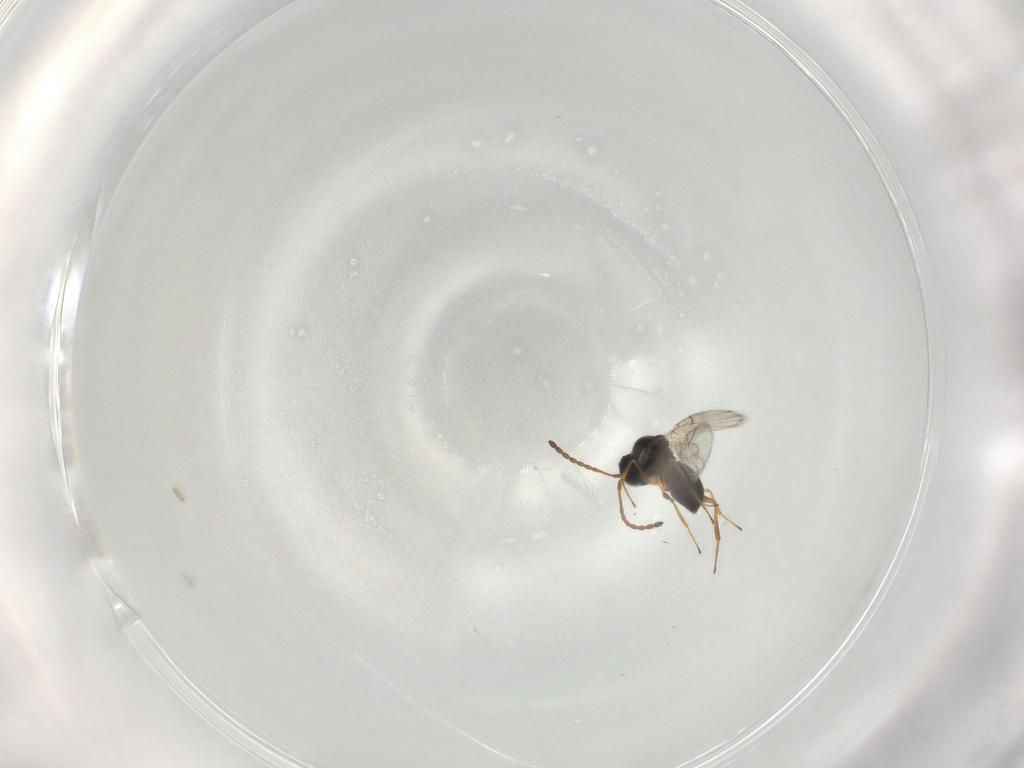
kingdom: Animalia
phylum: Arthropoda
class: Insecta
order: Hymenoptera
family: Figitidae
